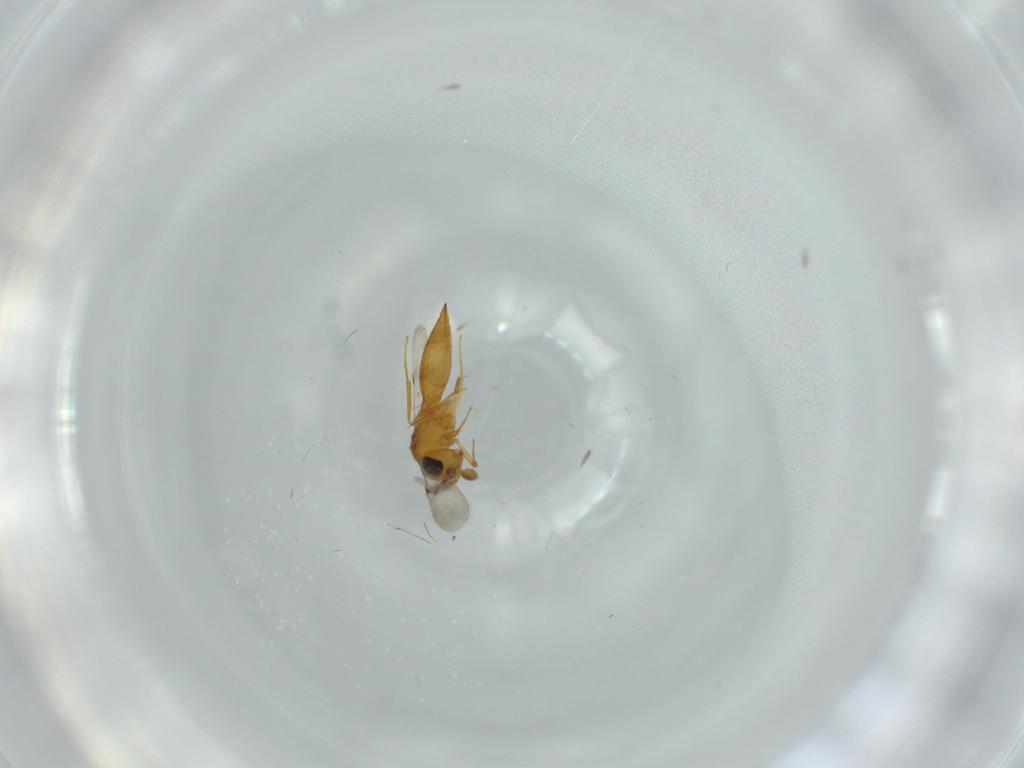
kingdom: Animalia
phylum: Arthropoda
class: Insecta
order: Hymenoptera
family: Scelionidae
